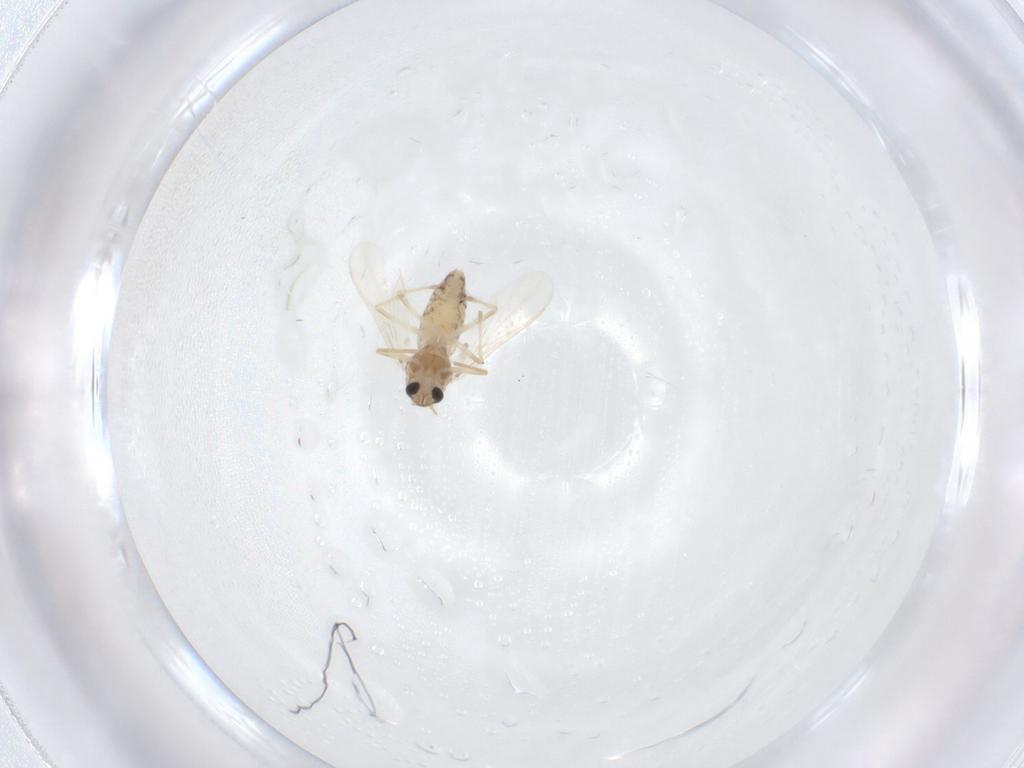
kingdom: Animalia
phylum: Arthropoda
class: Insecta
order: Diptera
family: Chironomidae
